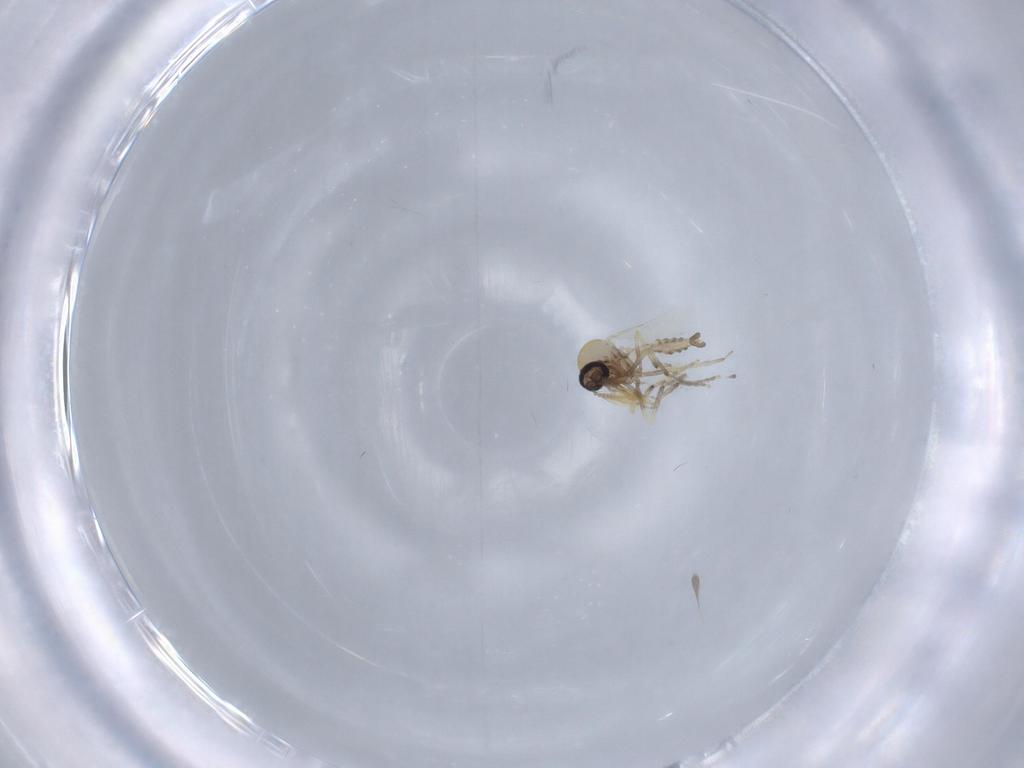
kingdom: Animalia
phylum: Arthropoda
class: Insecta
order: Diptera
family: Ceratopogonidae
